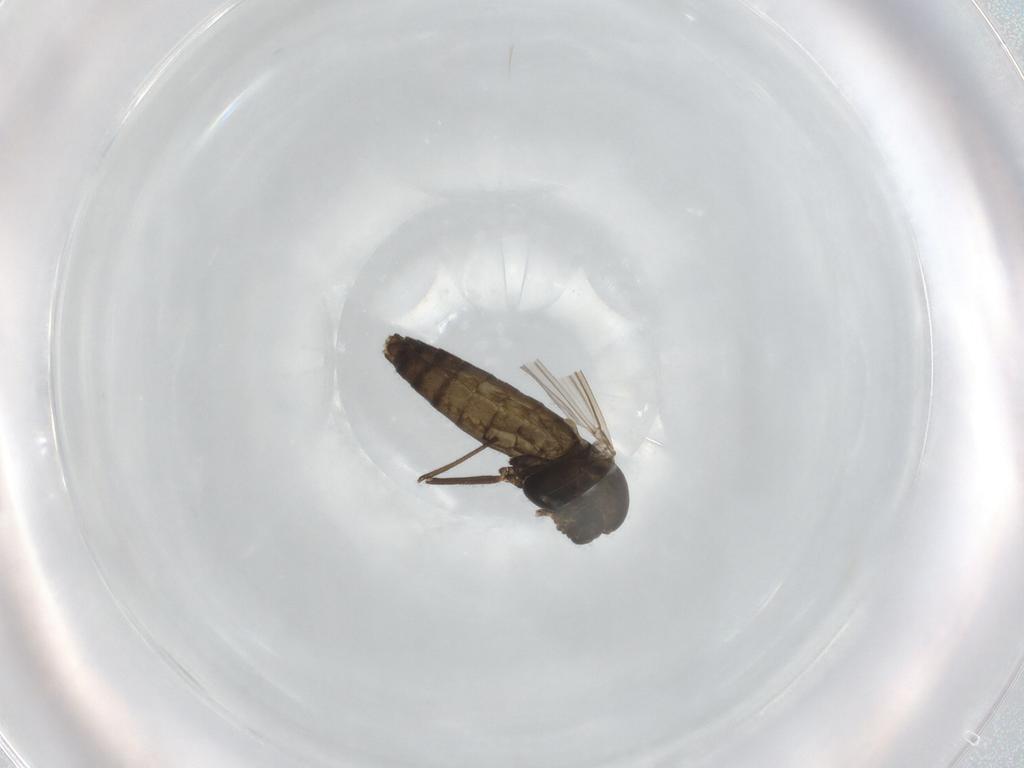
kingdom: Animalia
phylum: Arthropoda
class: Insecta
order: Diptera
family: Chironomidae
